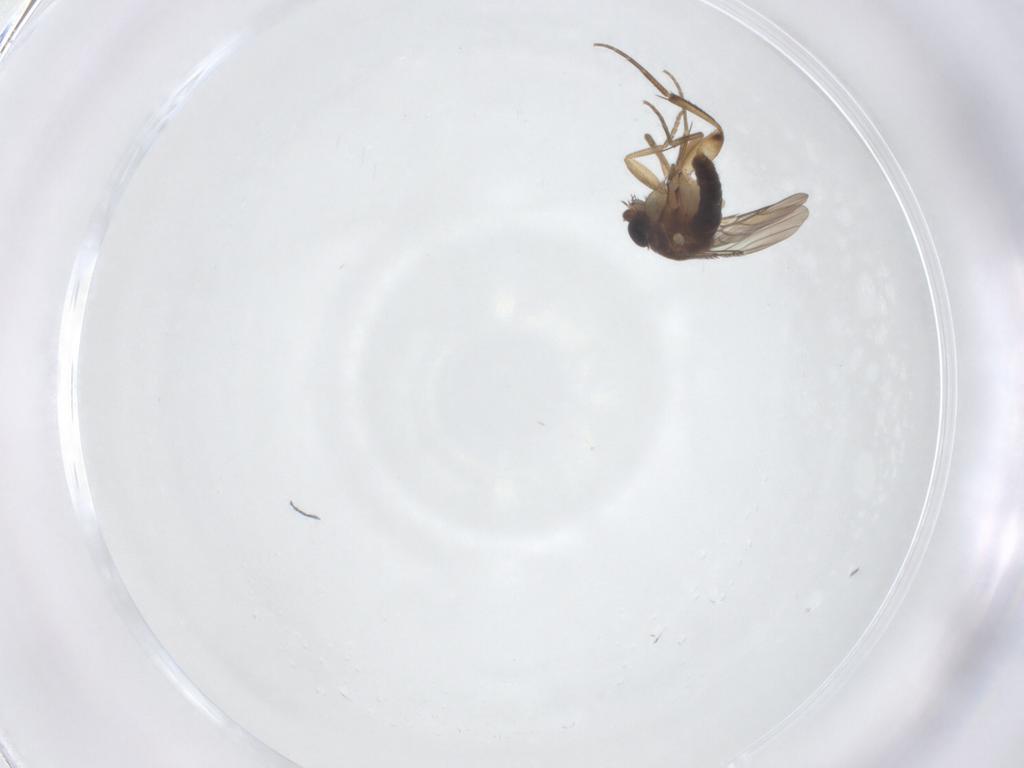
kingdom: Animalia
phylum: Arthropoda
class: Insecta
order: Diptera
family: Phoridae
